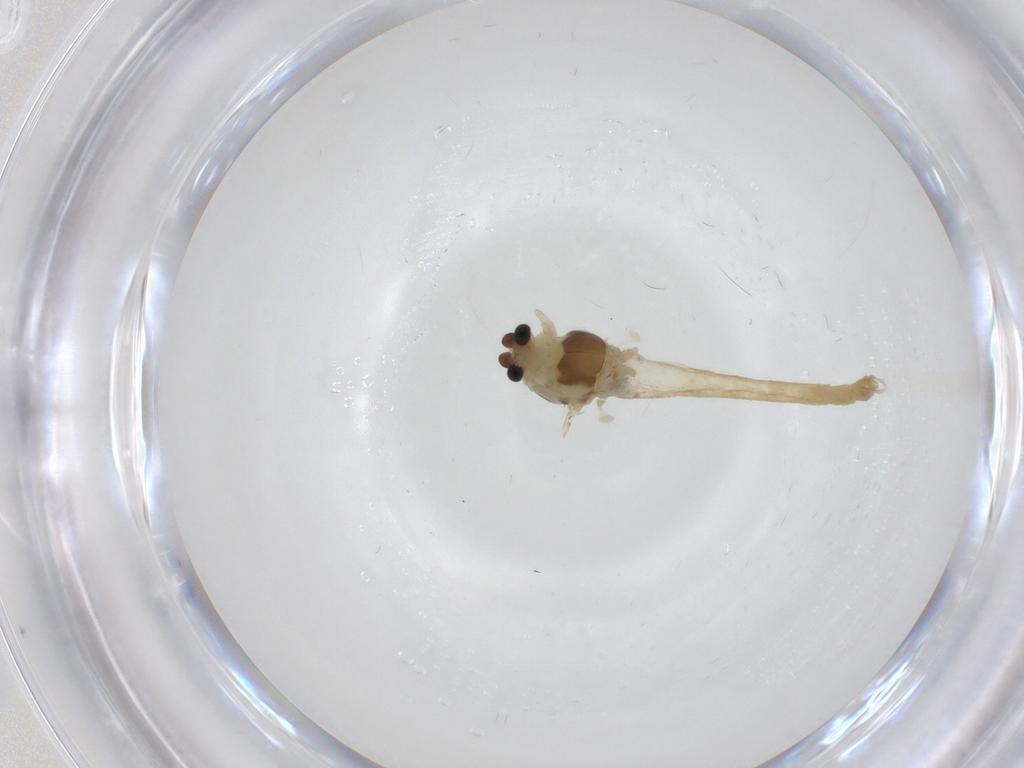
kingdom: Animalia
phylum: Arthropoda
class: Insecta
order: Diptera
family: Chironomidae
